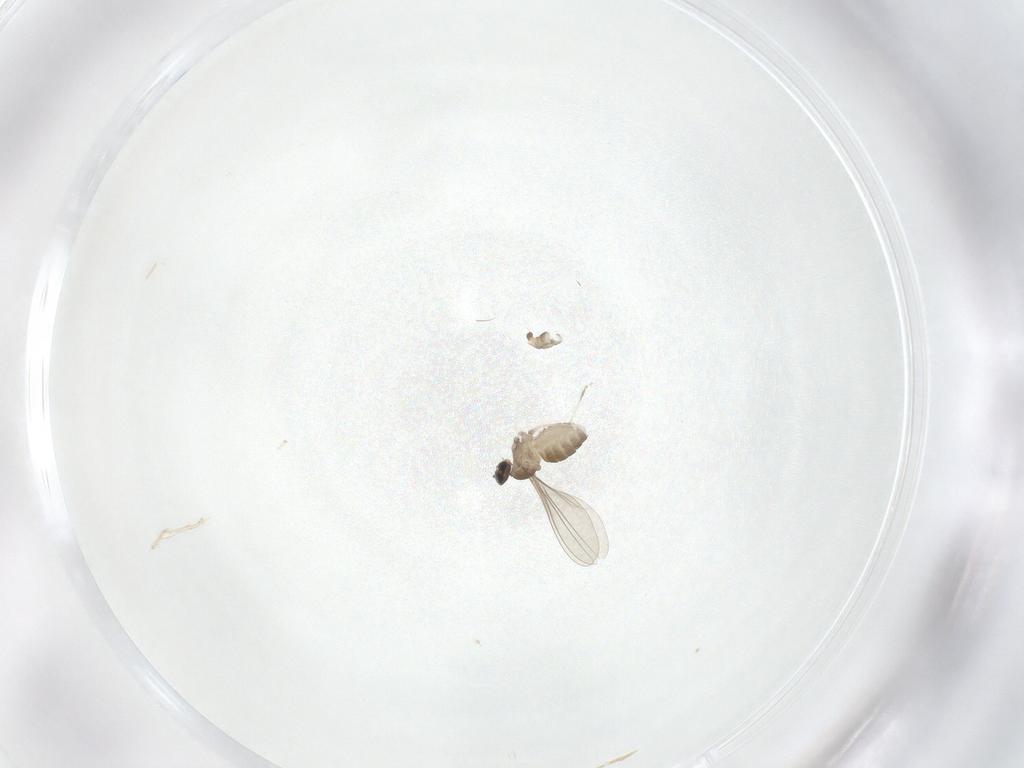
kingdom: Animalia
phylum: Arthropoda
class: Insecta
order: Diptera
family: Cecidomyiidae
